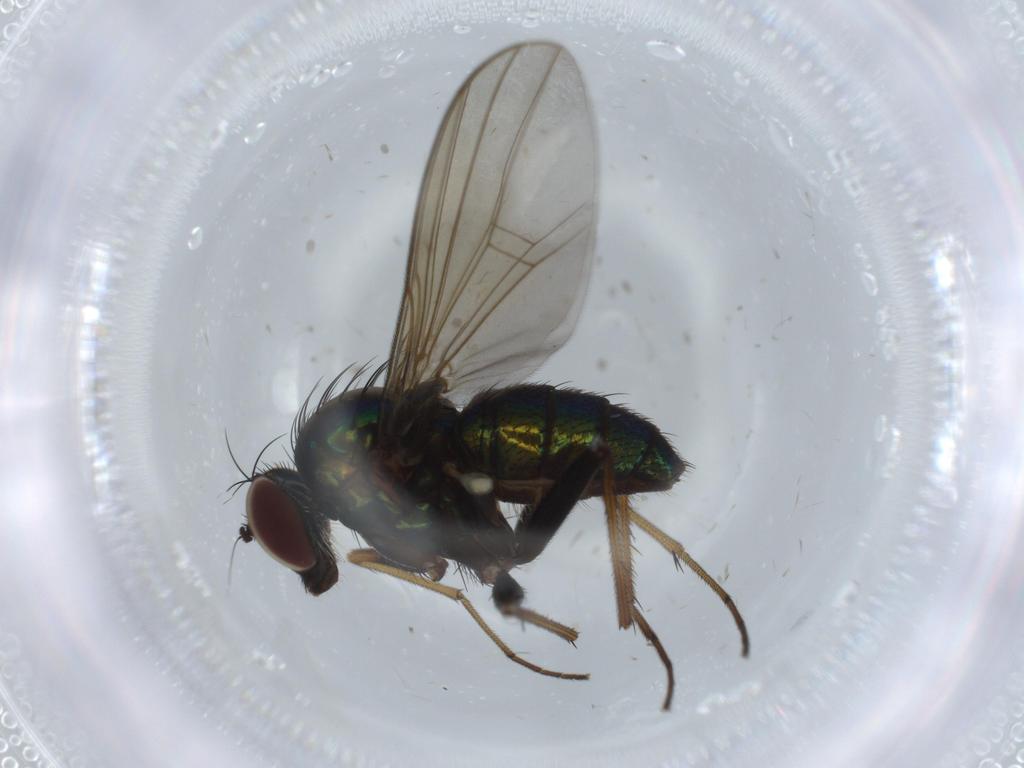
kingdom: Animalia
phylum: Arthropoda
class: Insecta
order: Diptera
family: Dolichopodidae
